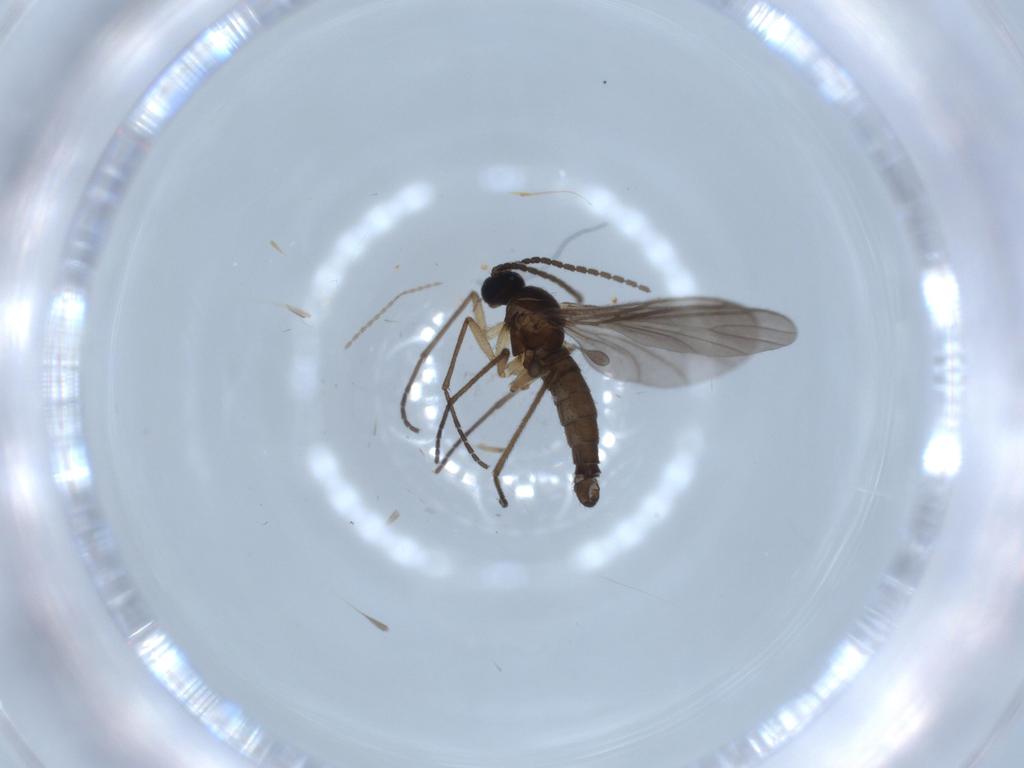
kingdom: Animalia
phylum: Arthropoda
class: Insecta
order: Diptera
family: Sciaridae
